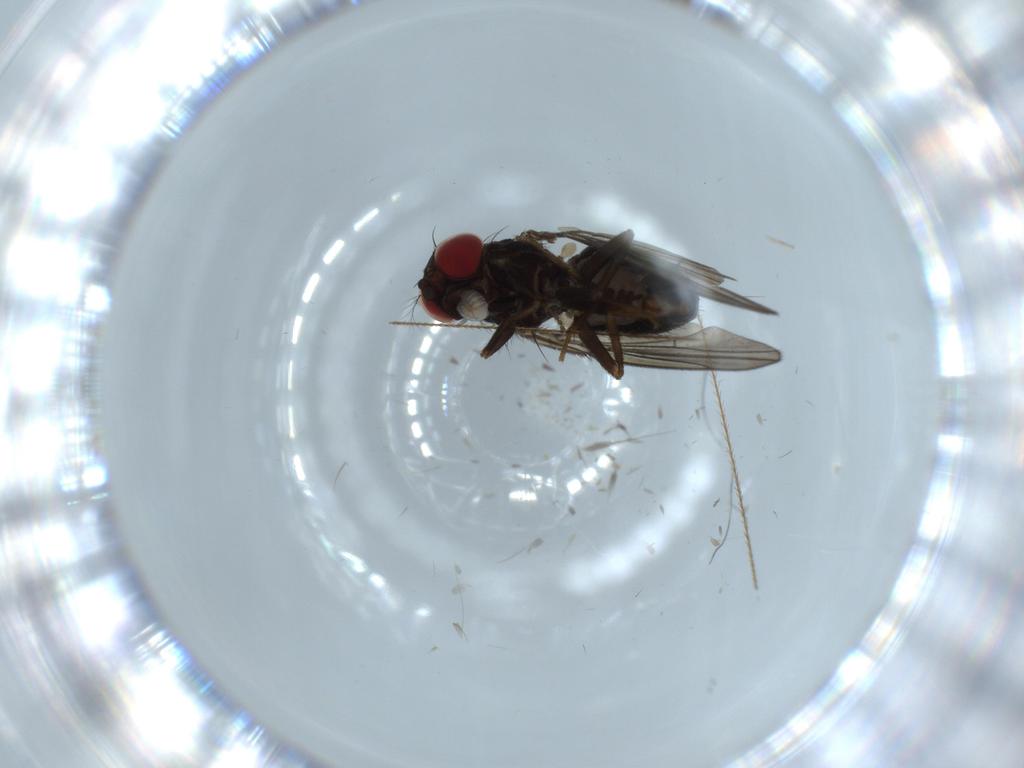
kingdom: Animalia
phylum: Arthropoda
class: Insecta
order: Diptera
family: Drosophilidae
